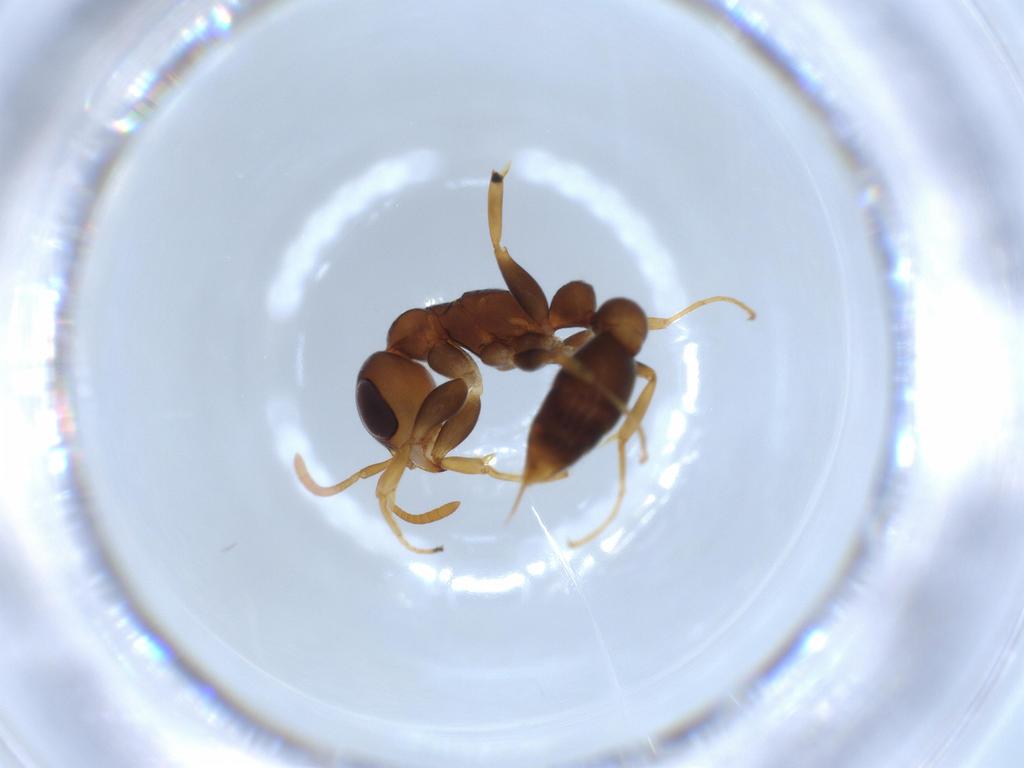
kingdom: Animalia
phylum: Arthropoda
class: Insecta
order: Hymenoptera
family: Formicidae
